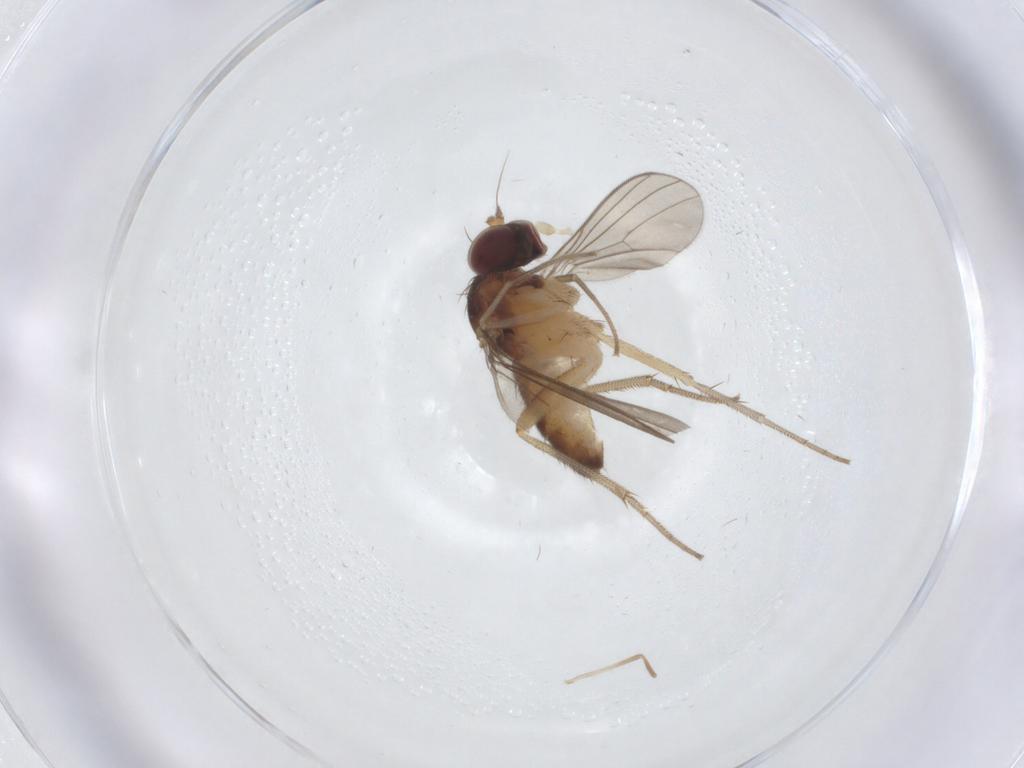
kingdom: Animalia
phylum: Arthropoda
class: Insecta
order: Diptera
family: Dolichopodidae
